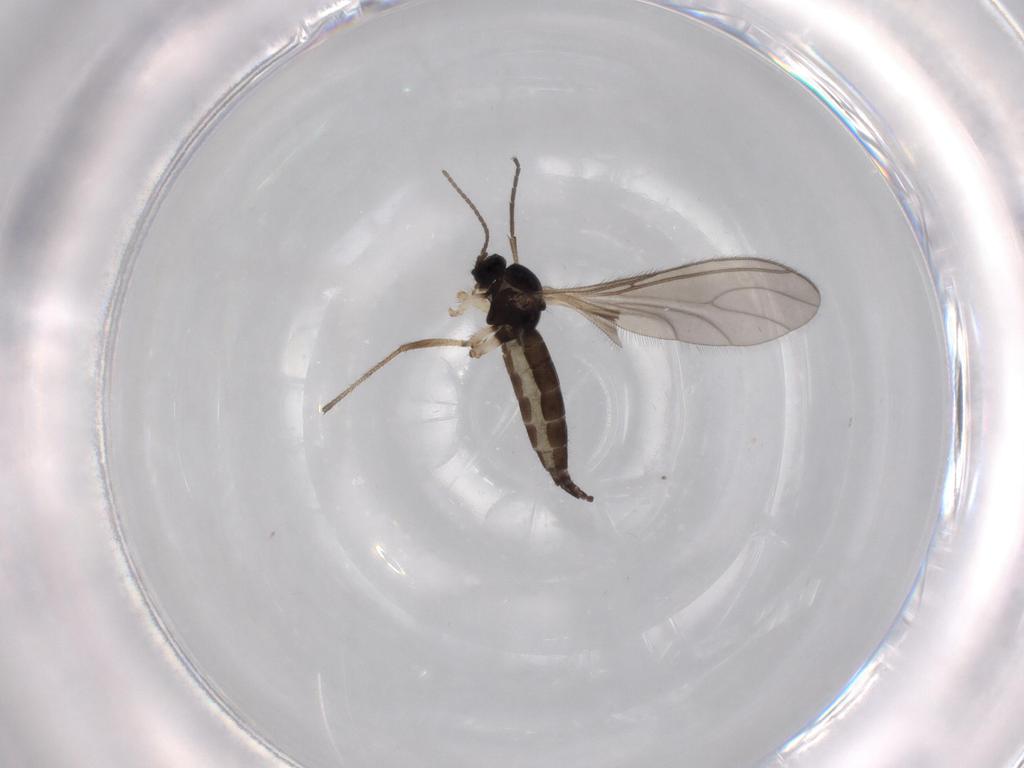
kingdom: Animalia
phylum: Arthropoda
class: Insecta
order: Diptera
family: Sciaridae
